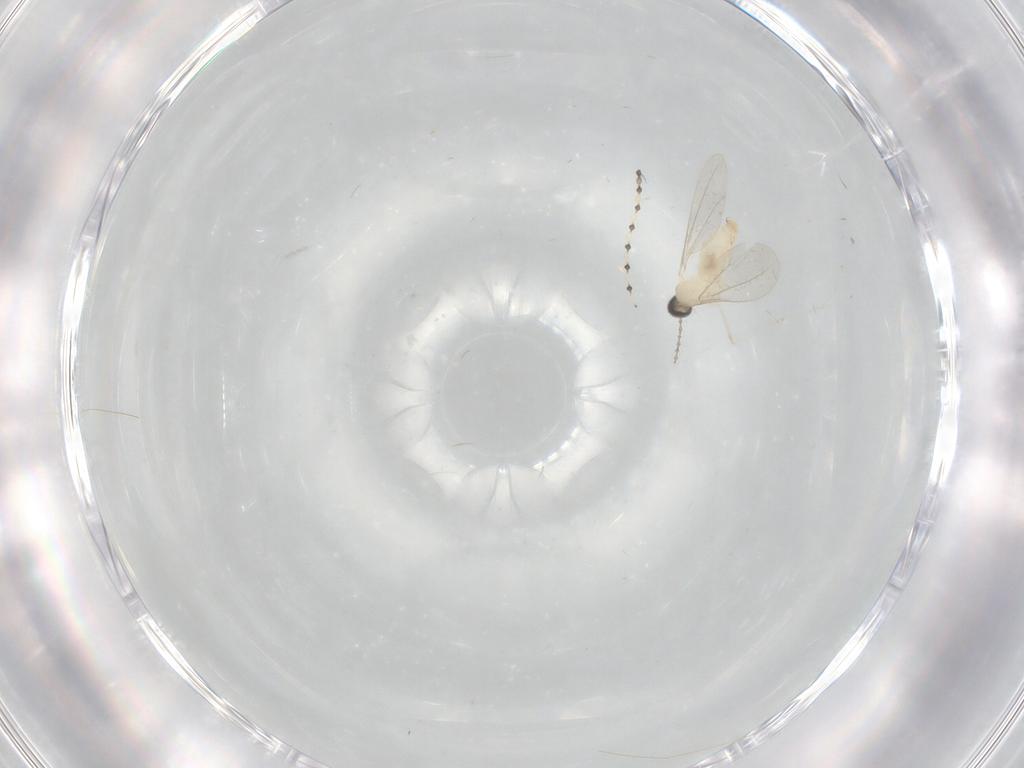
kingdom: Animalia
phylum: Arthropoda
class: Insecta
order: Diptera
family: Cecidomyiidae
